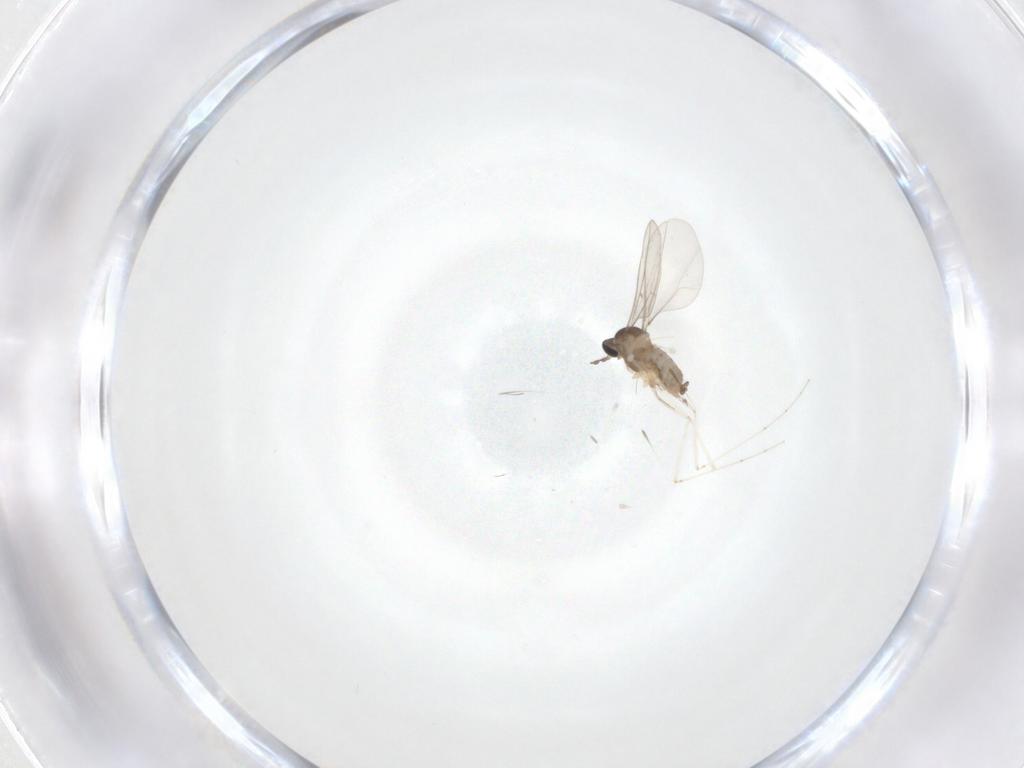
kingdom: Animalia
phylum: Arthropoda
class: Insecta
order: Diptera
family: Cecidomyiidae
